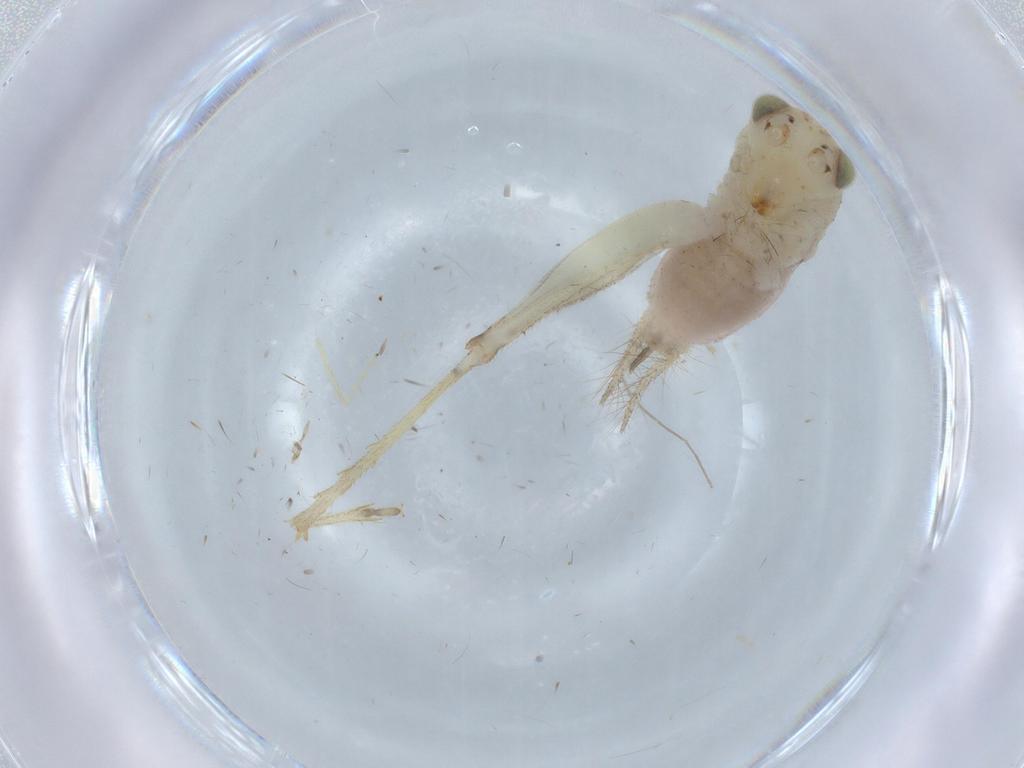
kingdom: Animalia
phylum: Arthropoda
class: Insecta
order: Orthoptera
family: Trigonidiidae
